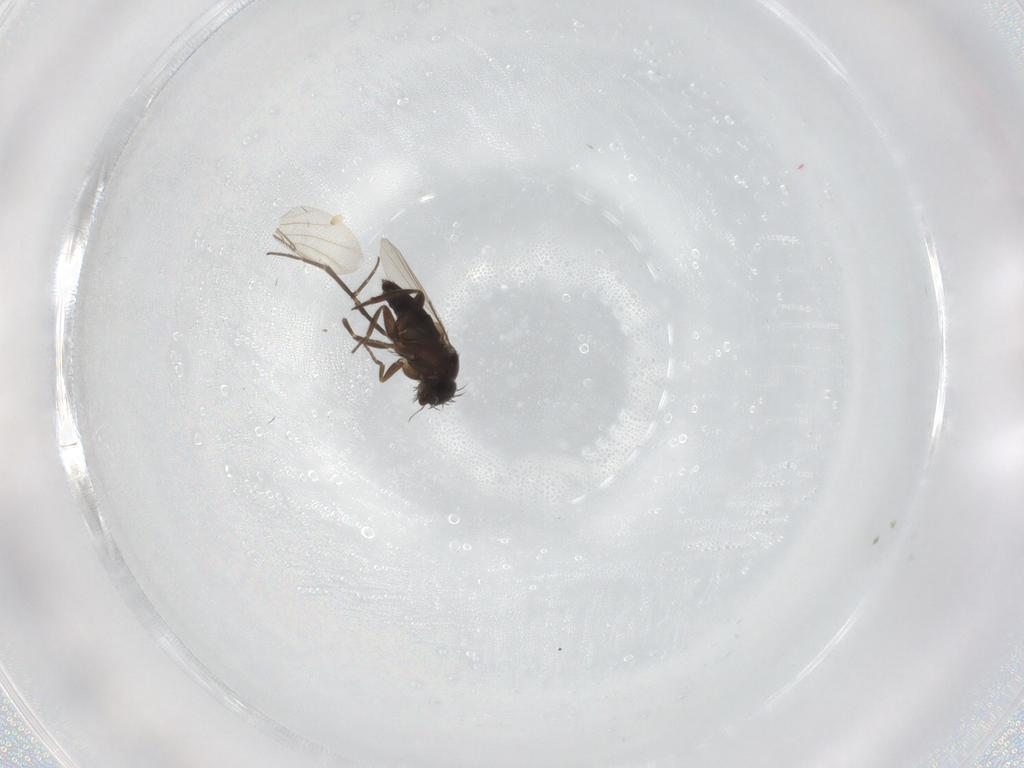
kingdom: Animalia
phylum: Arthropoda
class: Insecta
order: Diptera
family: Phoridae
